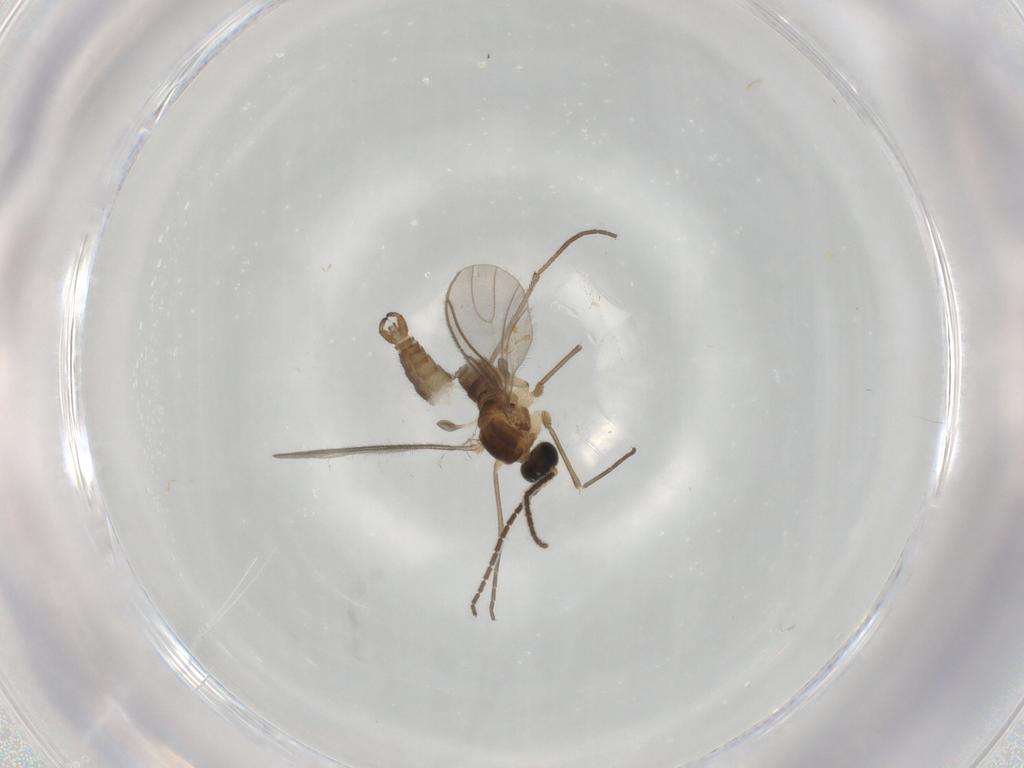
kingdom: Animalia
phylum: Arthropoda
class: Insecta
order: Diptera
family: Sciaridae
